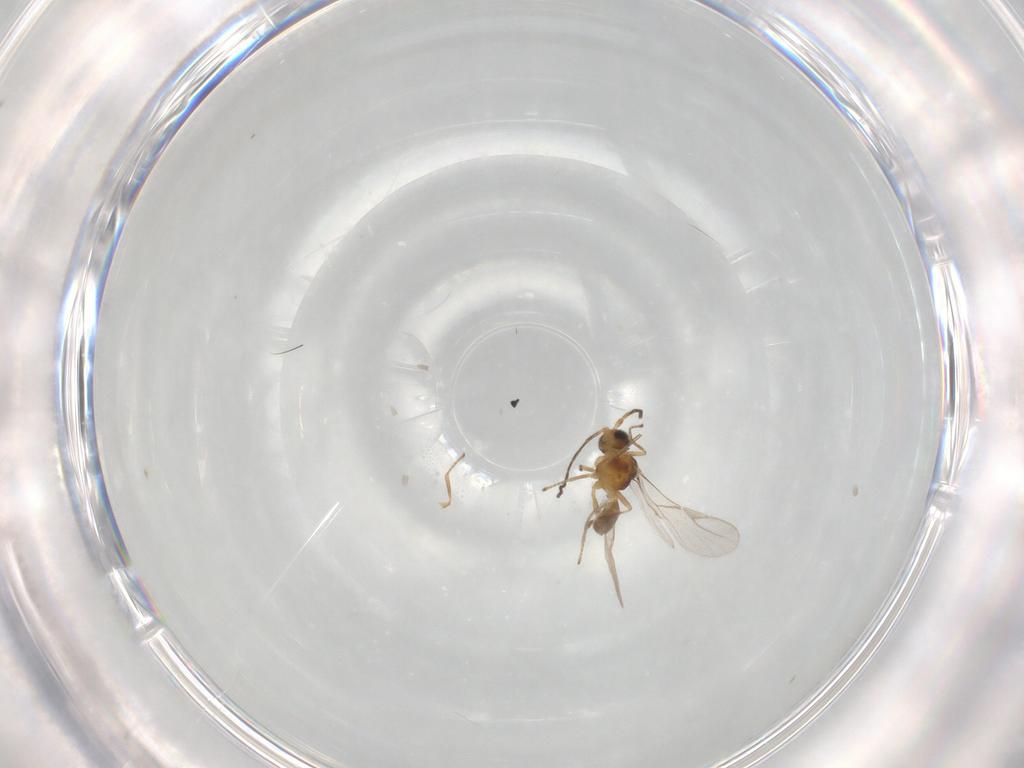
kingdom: Animalia
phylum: Arthropoda
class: Insecta
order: Hymenoptera
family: Braconidae
